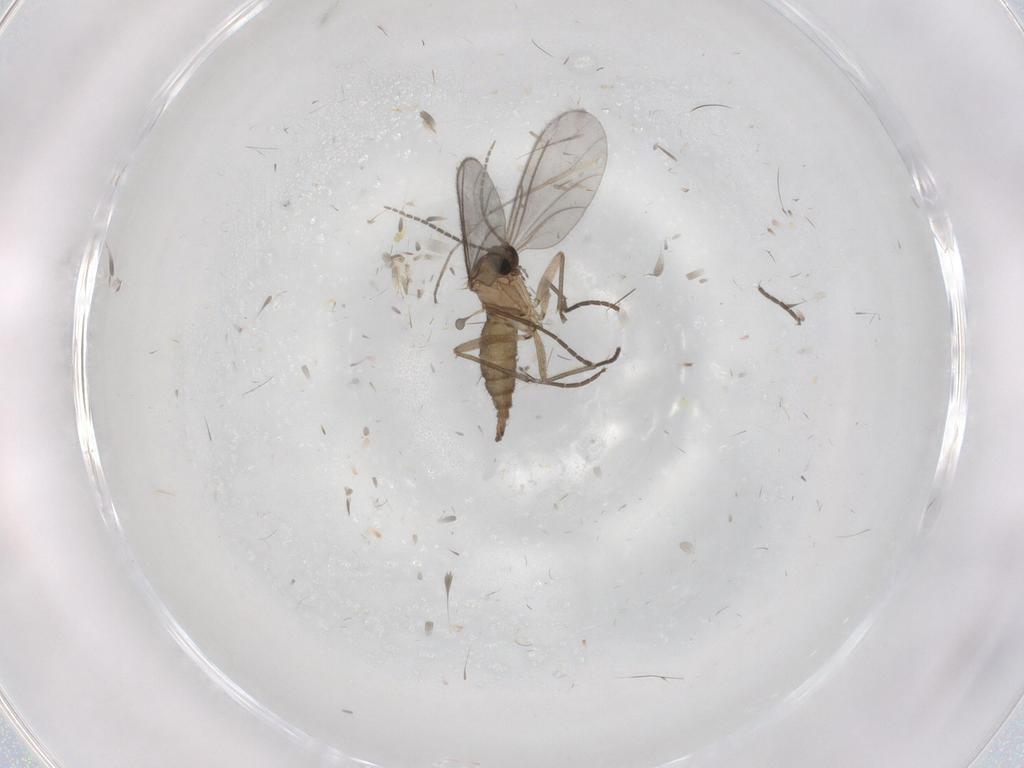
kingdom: Animalia
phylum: Arthropoda
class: Insecta
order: Diptera
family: Sciaridae
